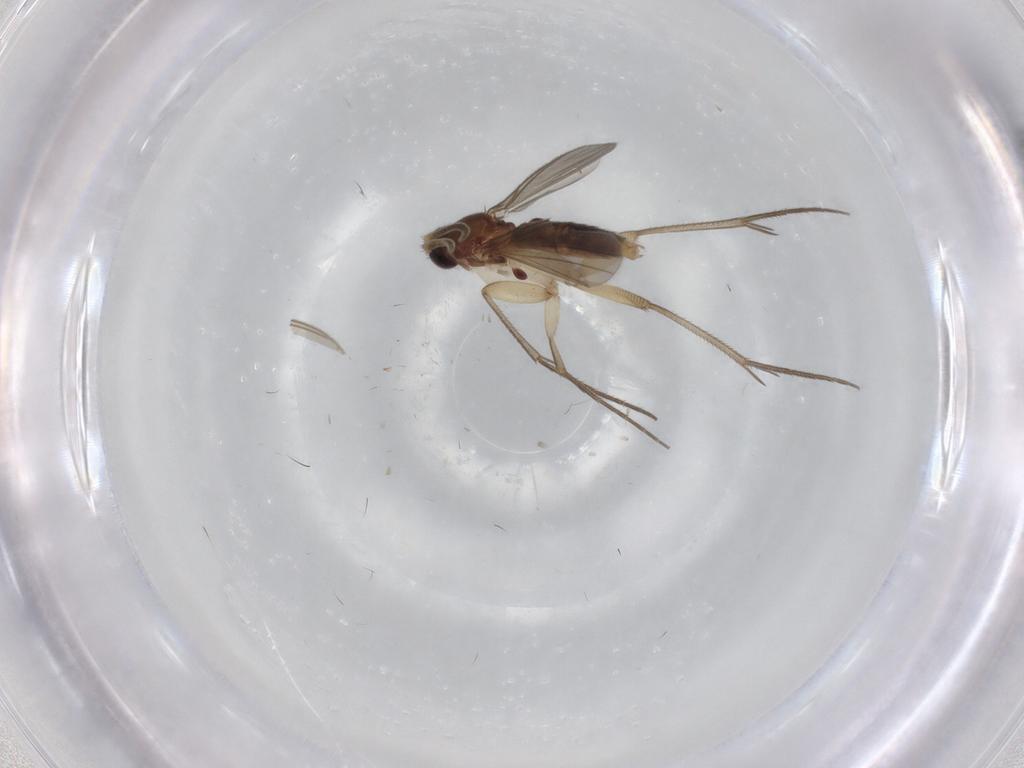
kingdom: Animalia
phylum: Arthropoda
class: Insecta
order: Diptera
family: Mycetophilidae
